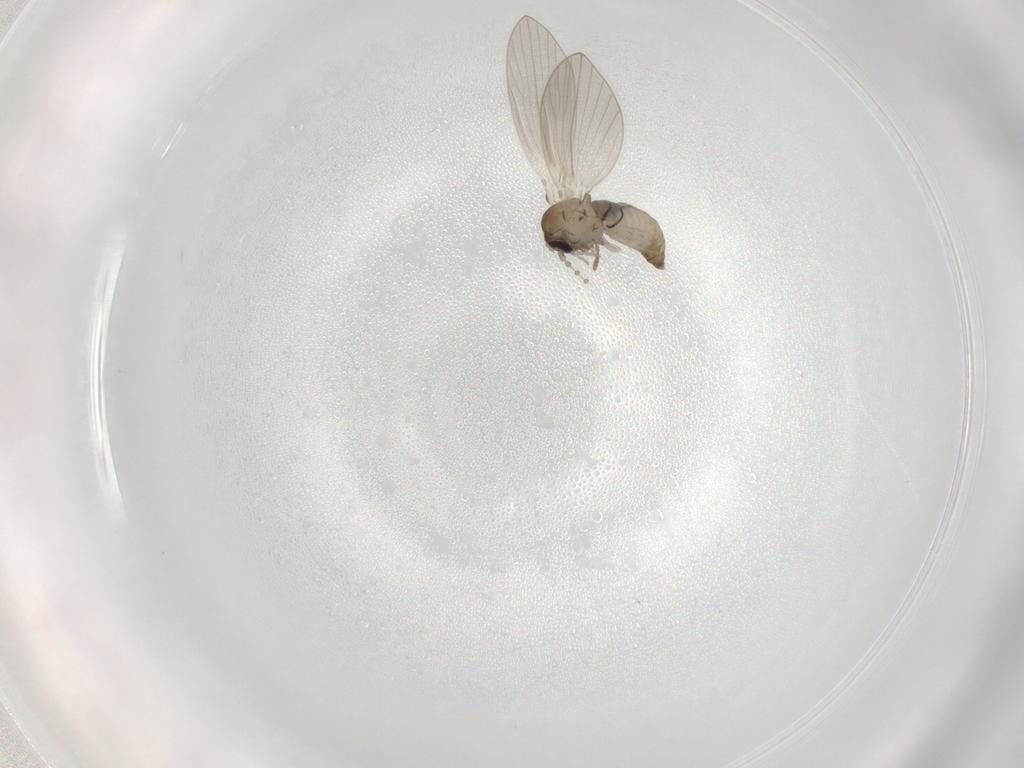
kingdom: Animalia
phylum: Arthropoda
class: Insecta
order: Diptera
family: Psychodidae
